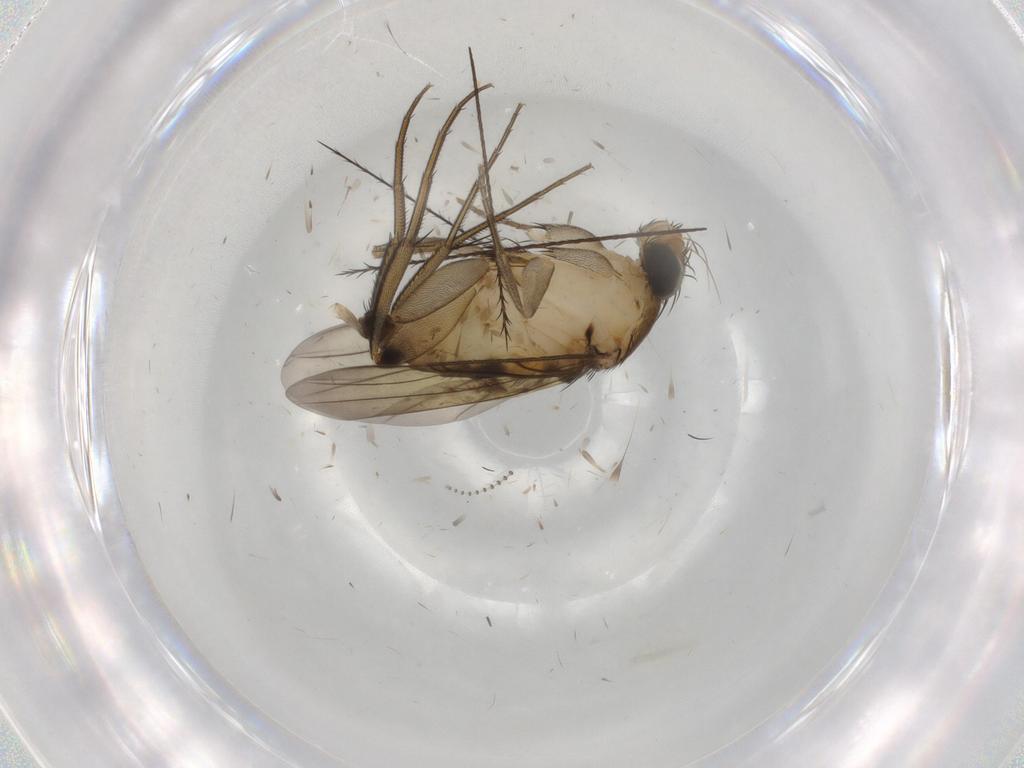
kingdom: Animalia
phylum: Arthropoda
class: Insecta
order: Diptera
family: Phoridae
